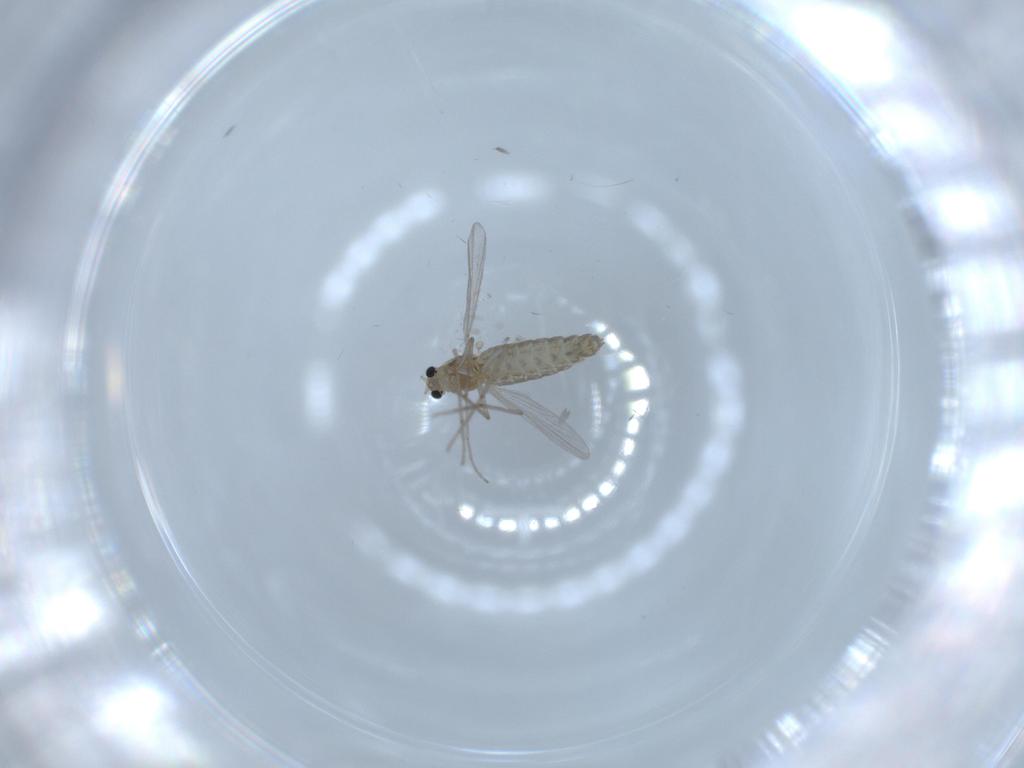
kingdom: Animalia
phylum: Arthropoda
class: Insecta
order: Diptera
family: Chironomidae
